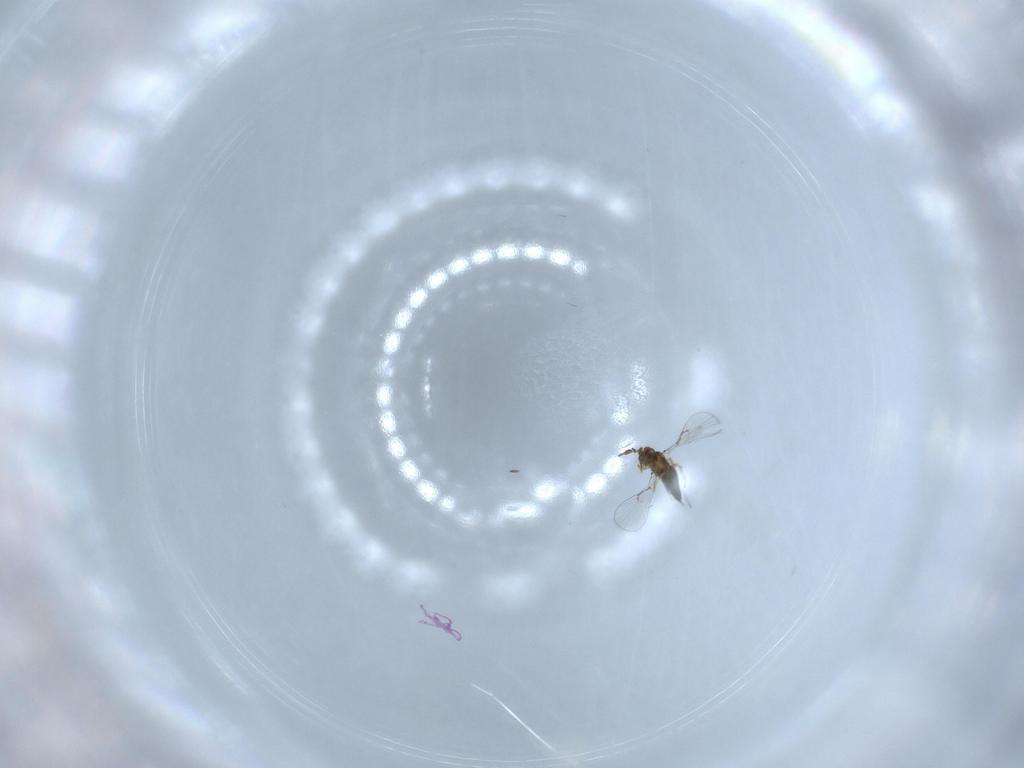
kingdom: Animalia
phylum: Arthropoda
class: Insecta
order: Hymenoptera
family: Trichogrammatidae
